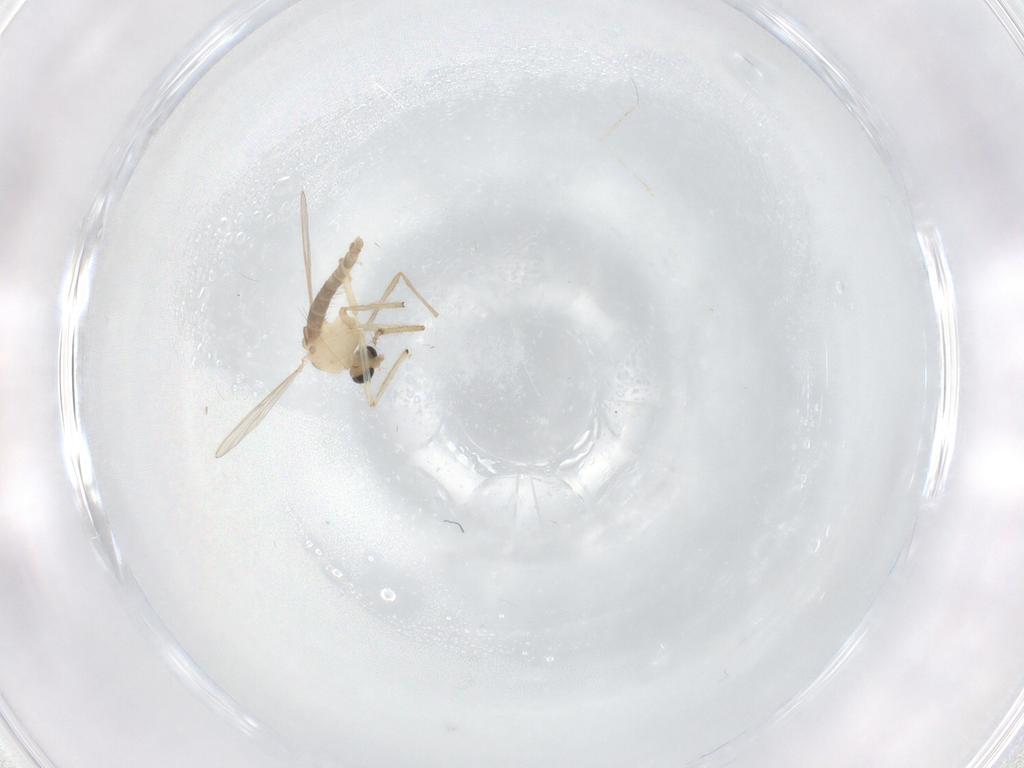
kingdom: Animalia
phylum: Arthropoda
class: Insecta
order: Diptera
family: Chironomidae
